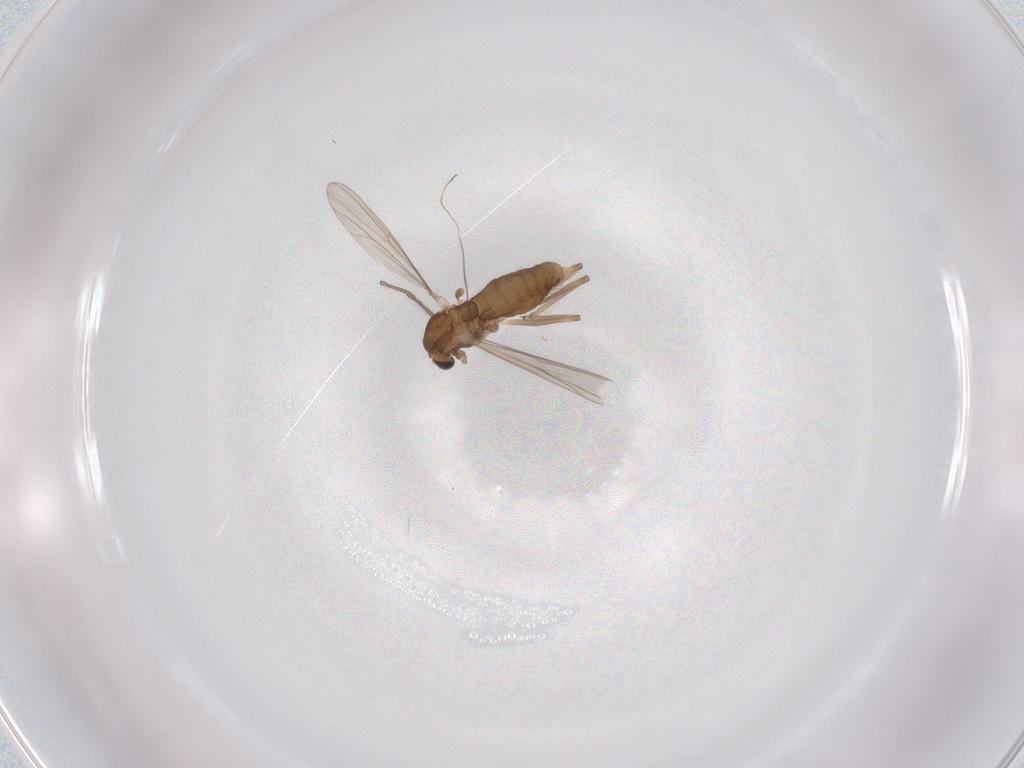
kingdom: Animalia
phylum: Arthropoda
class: Insecta
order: Diptera
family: Chironomidae
